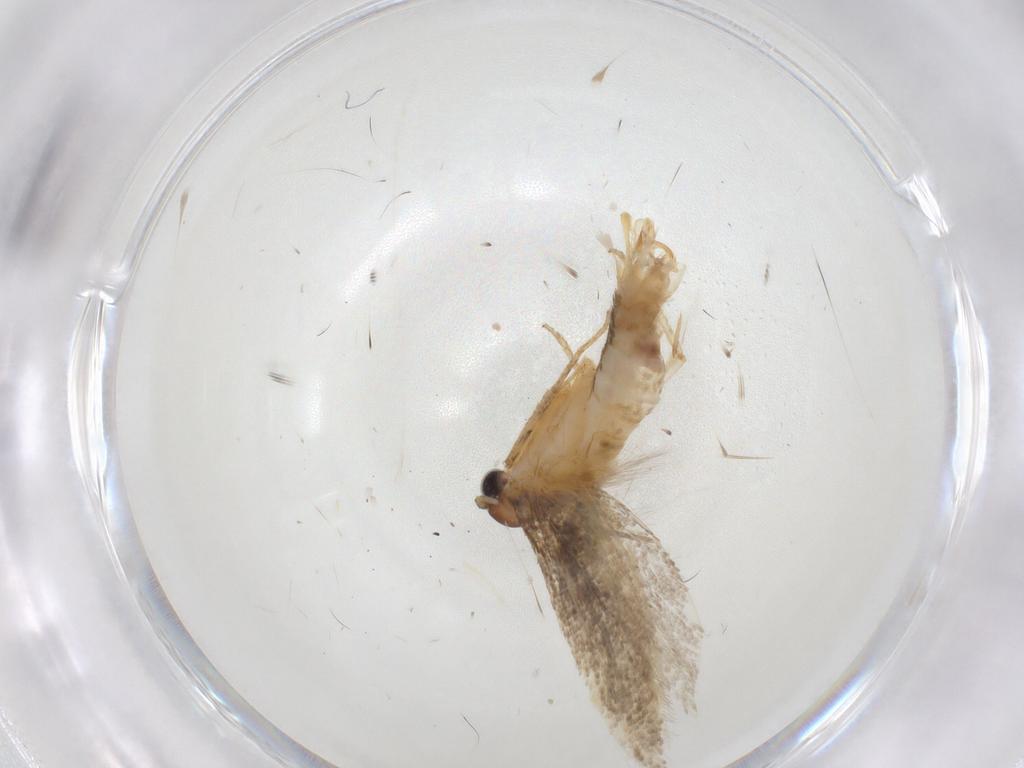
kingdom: Animalia
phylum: Arthropoda
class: Insecta
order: Lepidoptera
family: Gelechiidae
